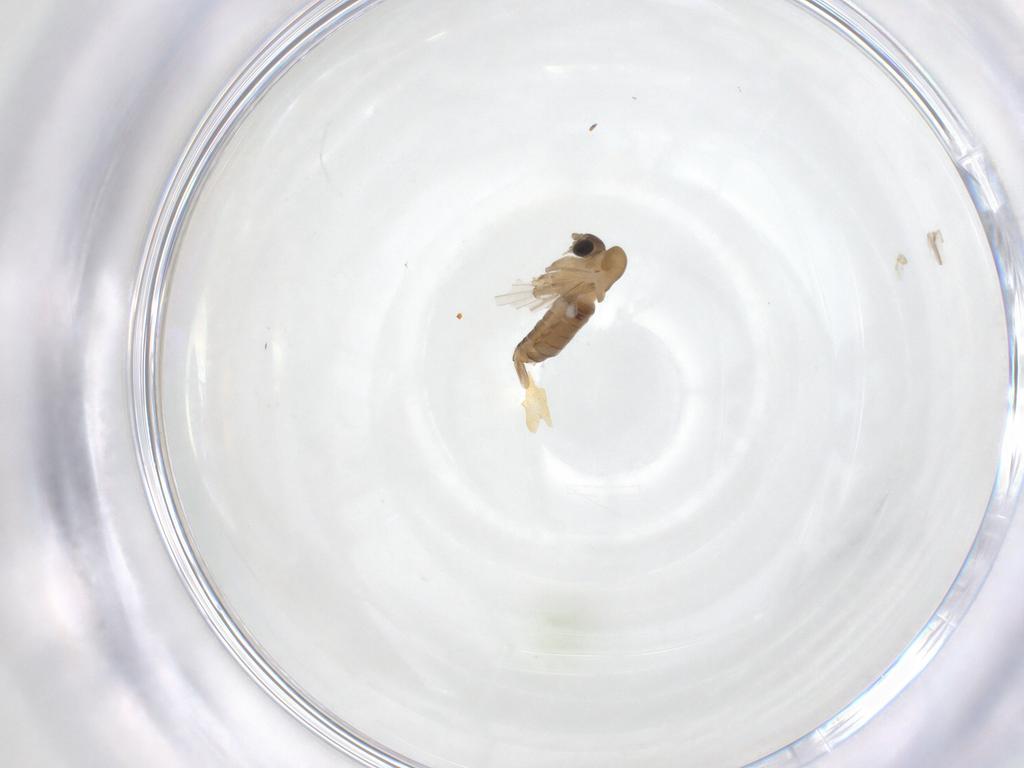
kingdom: Animalia
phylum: Arthropoda
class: Insecta
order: Diptera
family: Psychodidae
